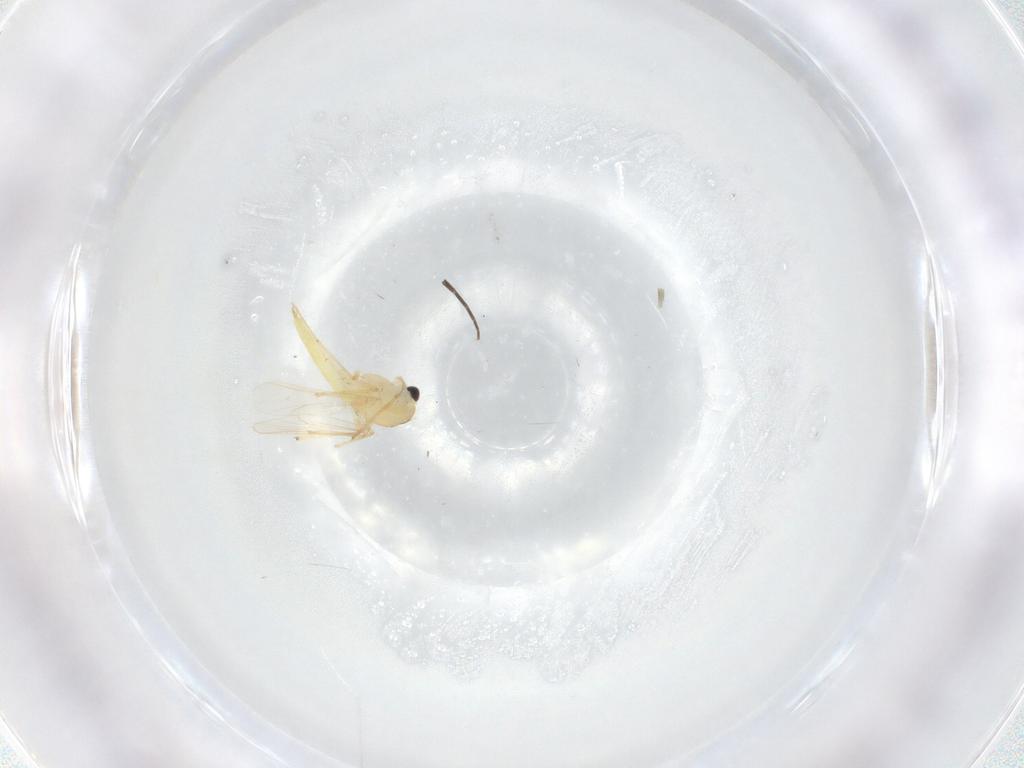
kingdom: Animalia
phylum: Arthropoda
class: Insecta
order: Diptera
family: Chironomidae
